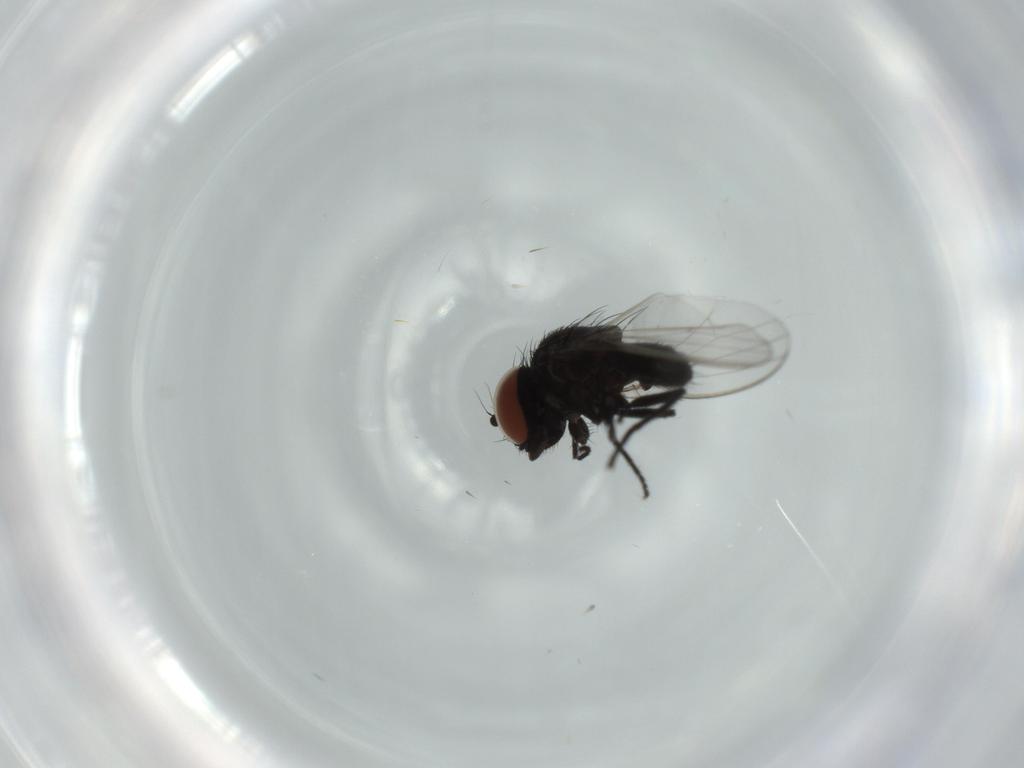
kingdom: Animalia
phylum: Arthropoda
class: Insecta
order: Diptera
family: Milichiidae
